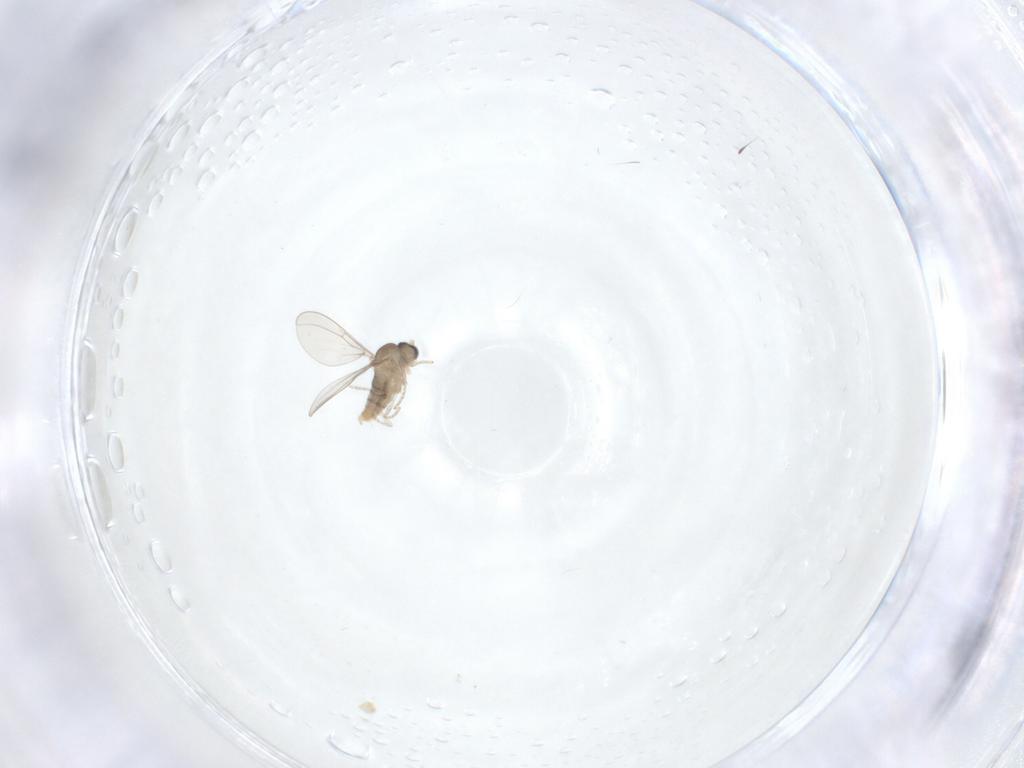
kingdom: Animalia
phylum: Arthropoda
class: Insecta
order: Diptera
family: Cecidomyiidae
